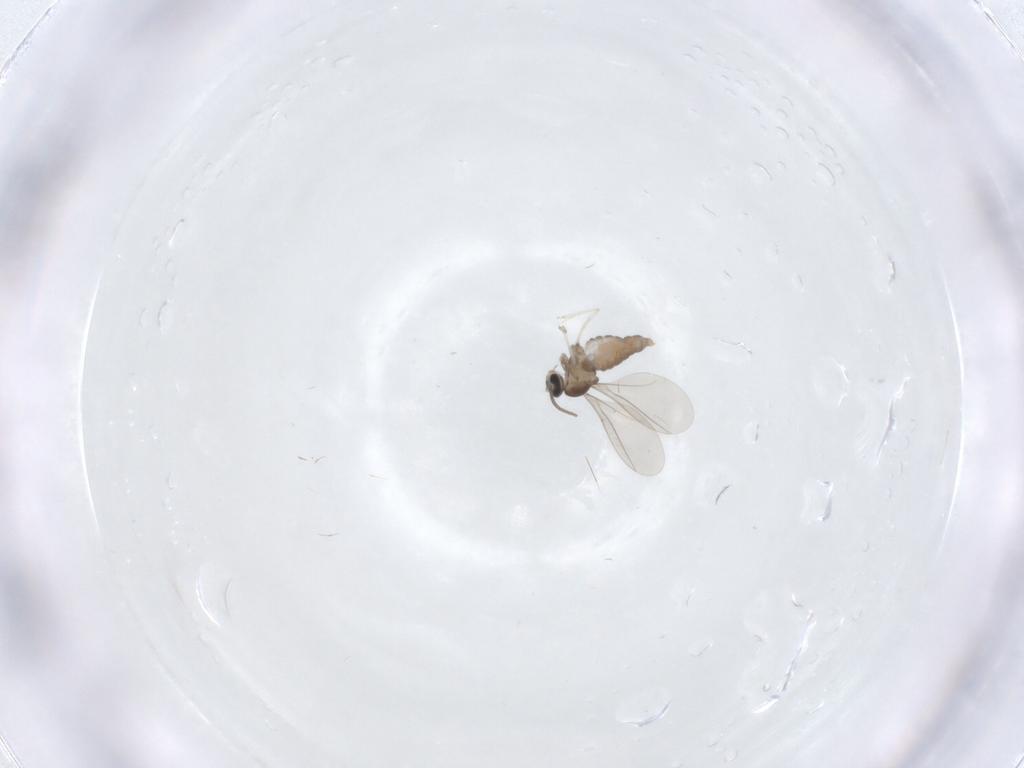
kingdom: Animalia
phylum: Arthropoda
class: Insecta
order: Diptera
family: Cecidomyiidae
